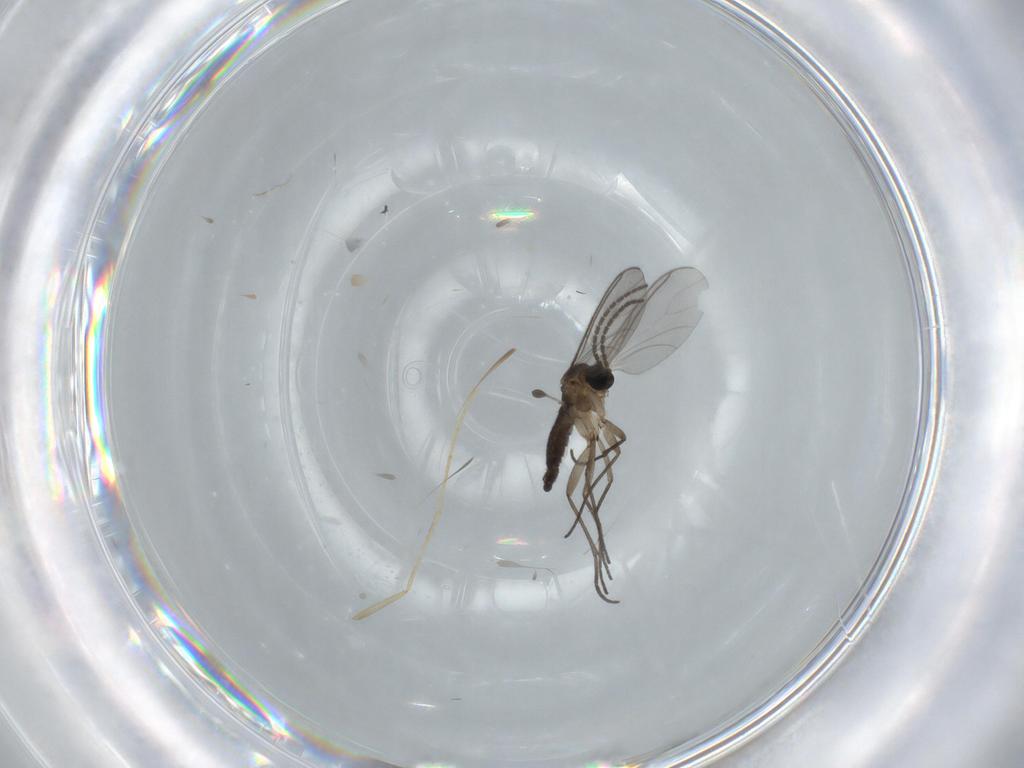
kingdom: Animalia
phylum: Arthropoda
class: Insecta
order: Diptera
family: Sciaridae
